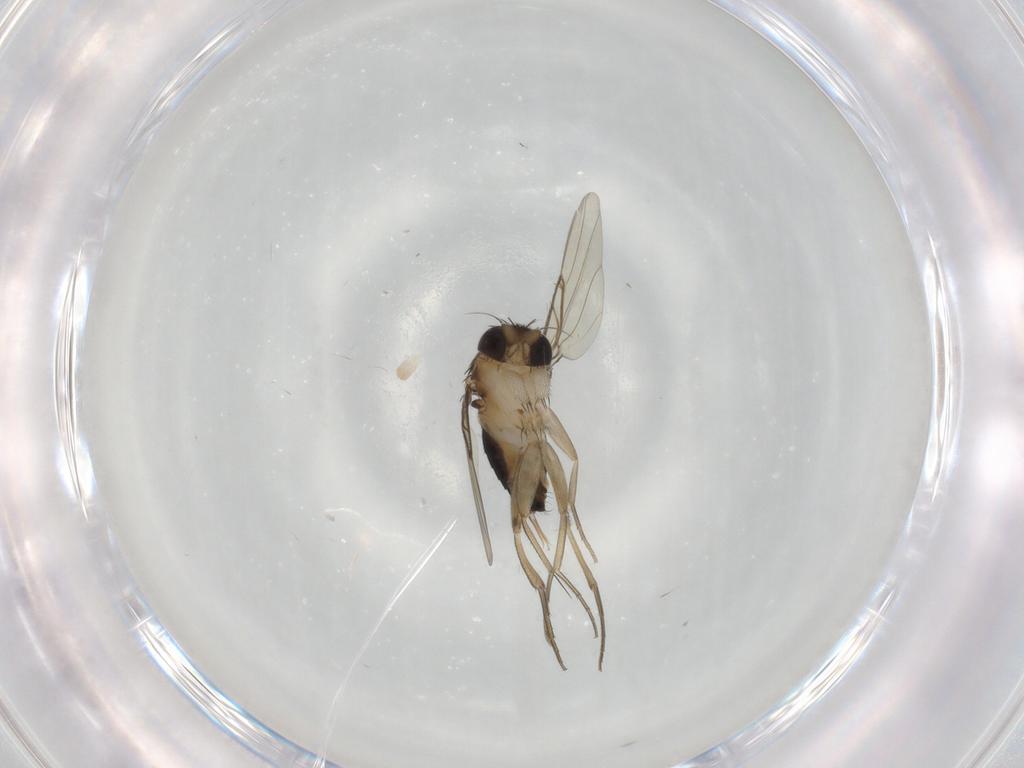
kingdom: Animalia
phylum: Arthropoda
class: Insecta
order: Diptera
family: Phoridae
